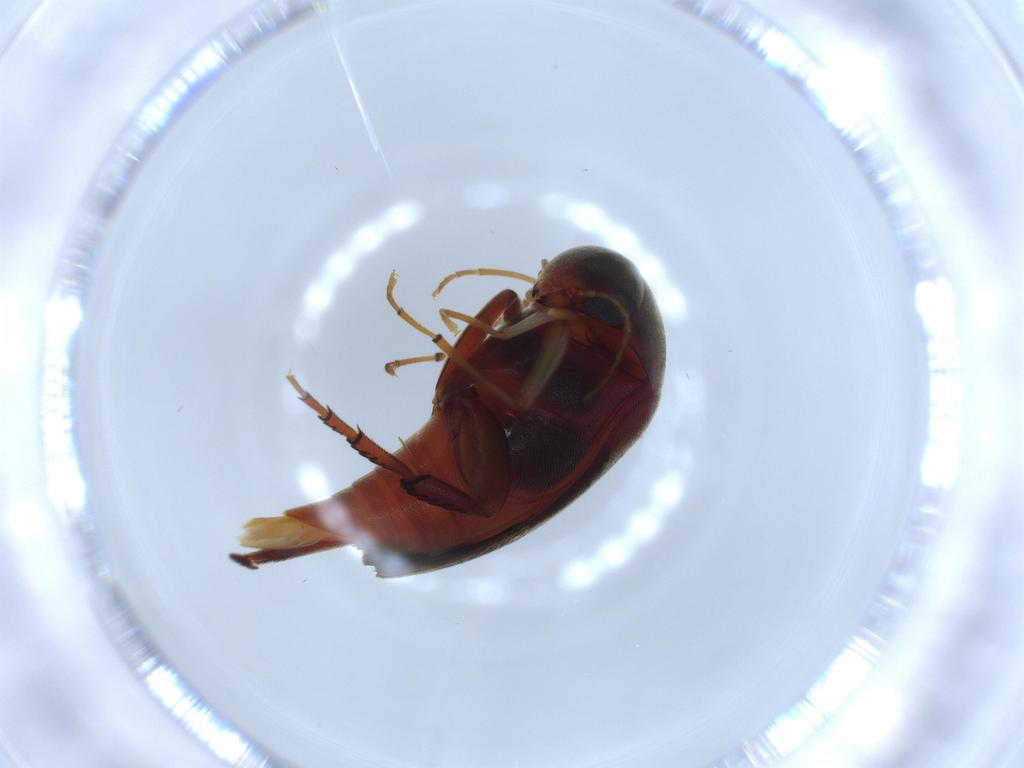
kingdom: Animalia
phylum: Arthropoda
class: Insecta
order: Coleoptera
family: Mordellidae
